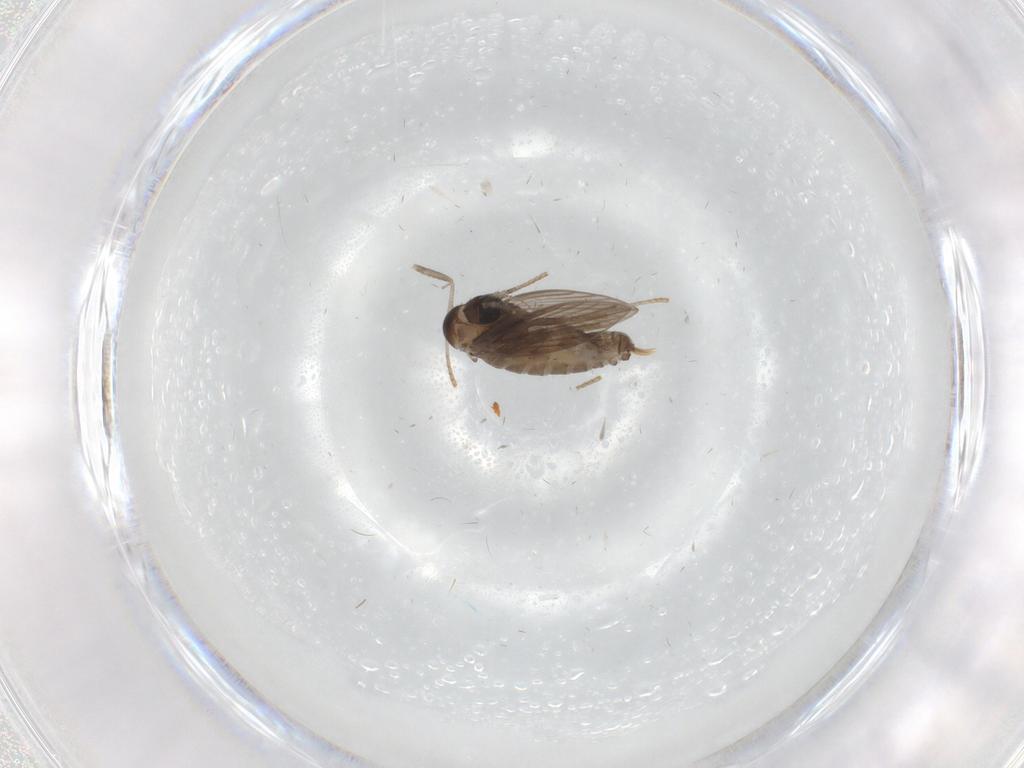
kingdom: Animalia
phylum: Arthropoda
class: Insecta
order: Diptera
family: Psychodidae
